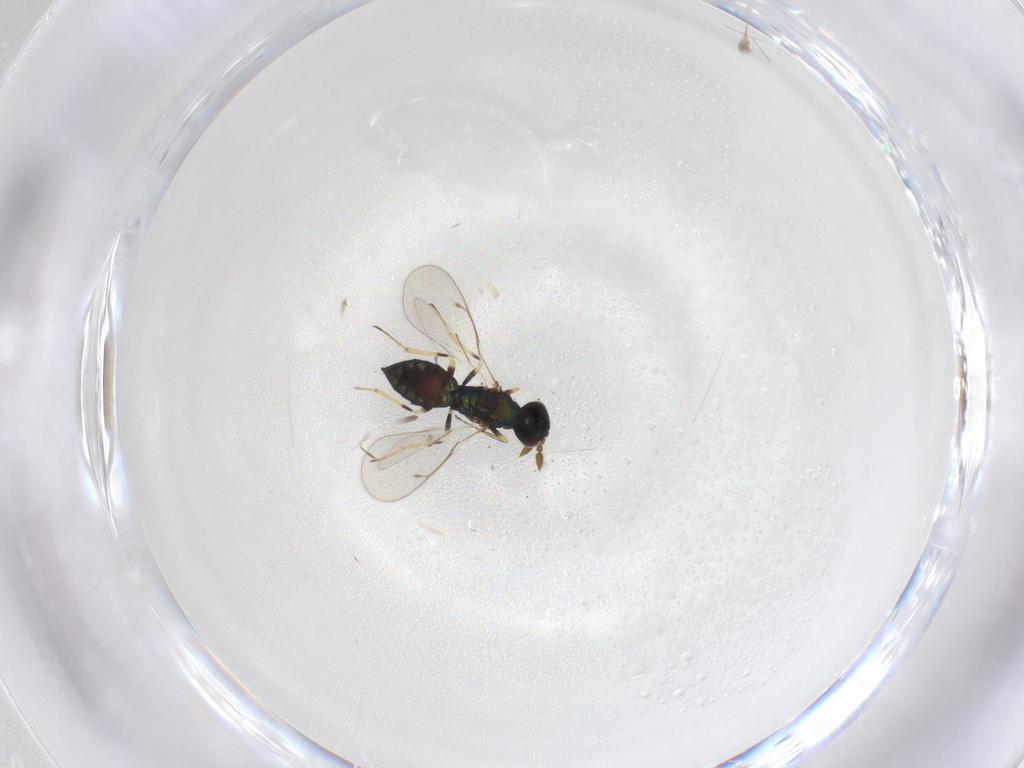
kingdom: Animalia
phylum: Arthropoda
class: Insecta
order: Hymenoptera
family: Eulophidae
